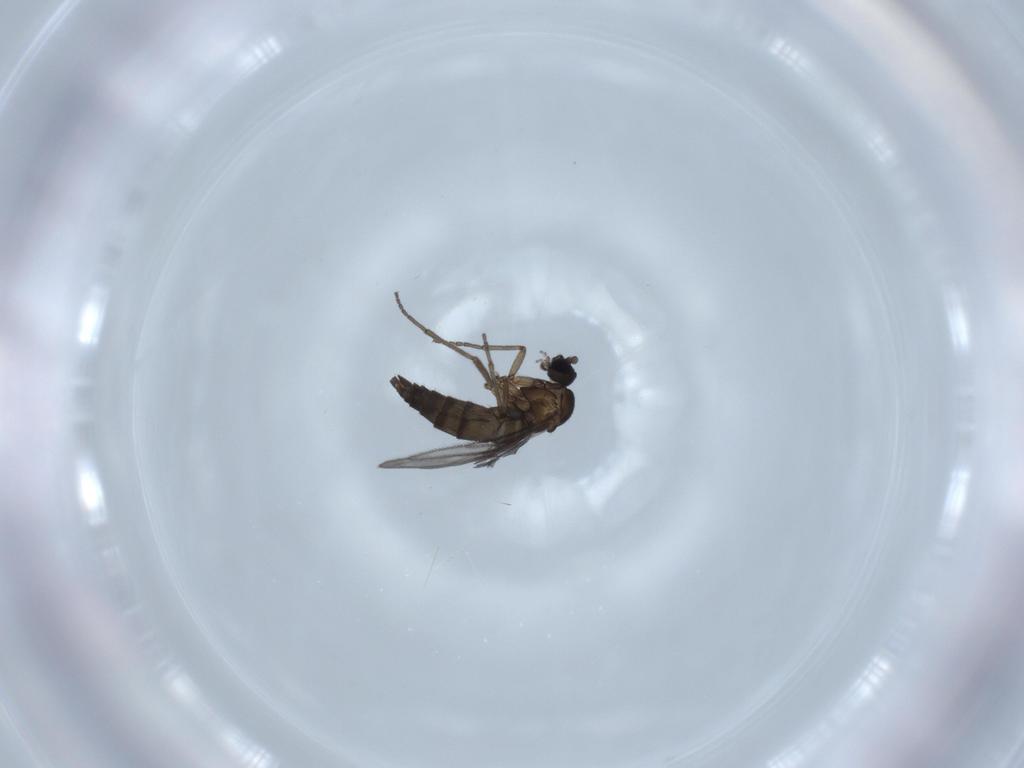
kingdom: Animalia
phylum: Arthropoda
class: Insecta
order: Diptera
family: Sciaridae
